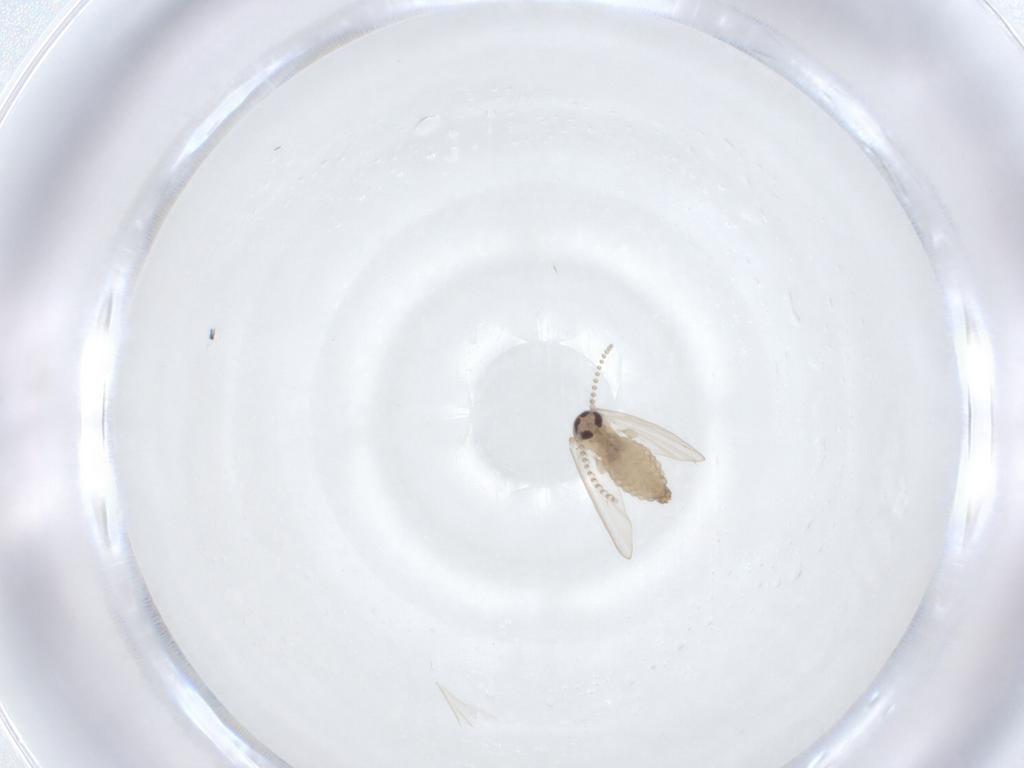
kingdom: Animalia
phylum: Arthropoda
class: Insecta
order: Diptera
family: Psychodidae
